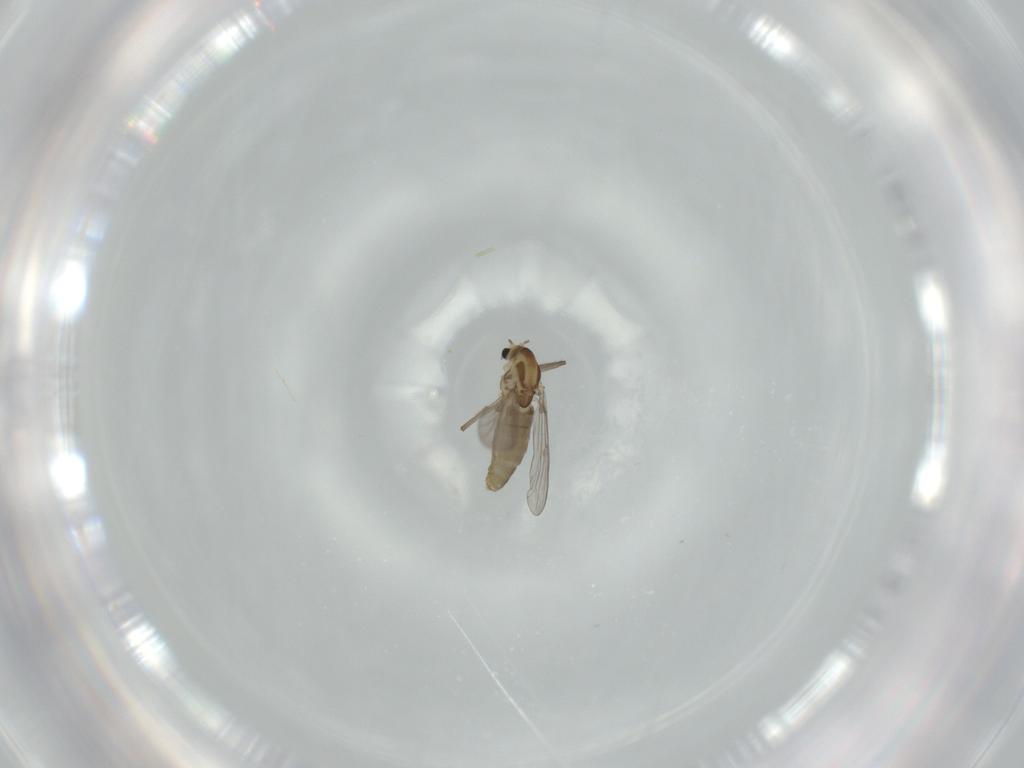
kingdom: Animalia
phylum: Arthropoda
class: Insecta
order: Diptera
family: Chironomidae
